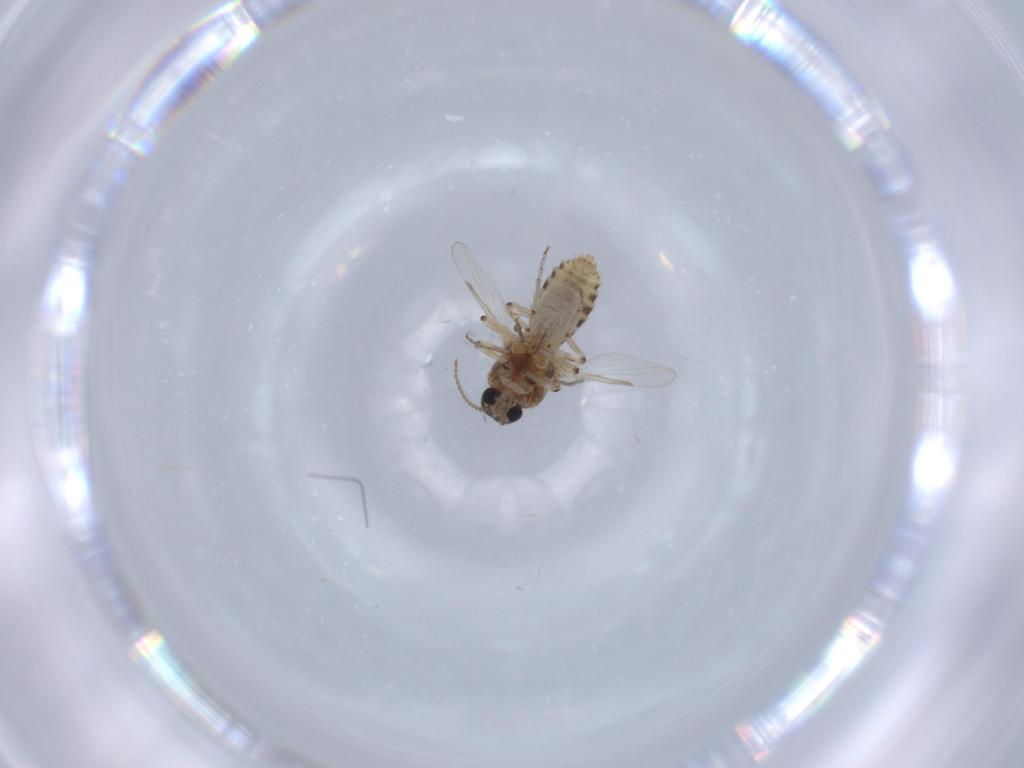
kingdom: Animalia
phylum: Arthropoda
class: Insecta
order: Diptera
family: Ceratopogonidae
